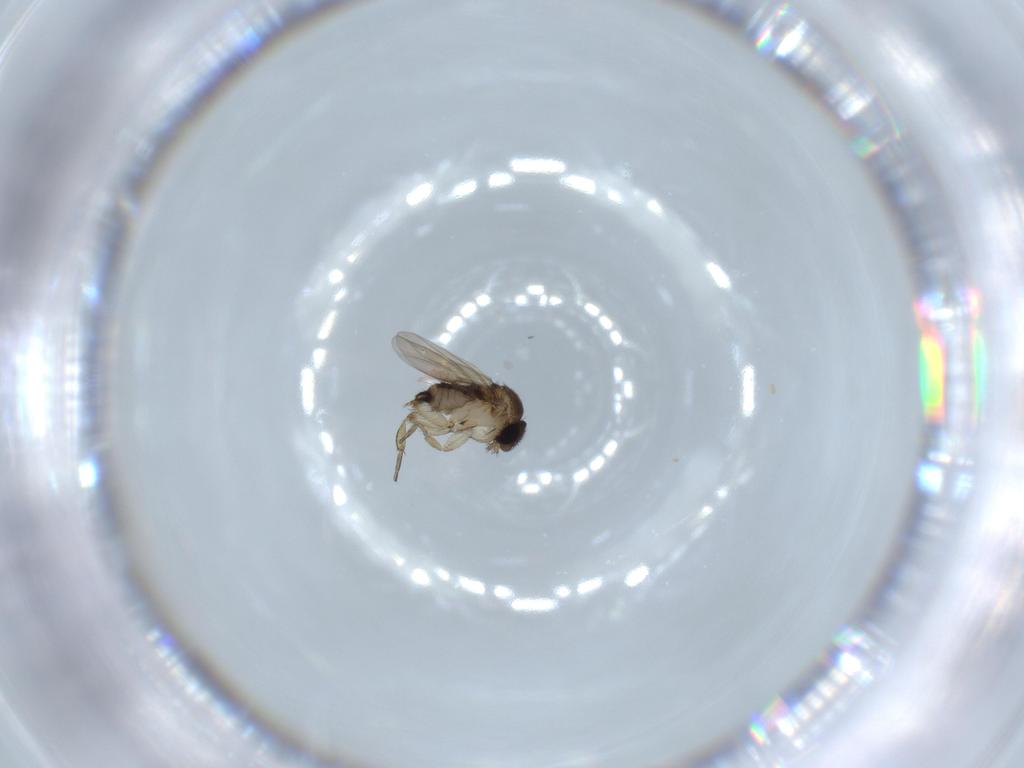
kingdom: Animalia
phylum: Arthropoda
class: Insecta
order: Diptera
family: Phoridae
